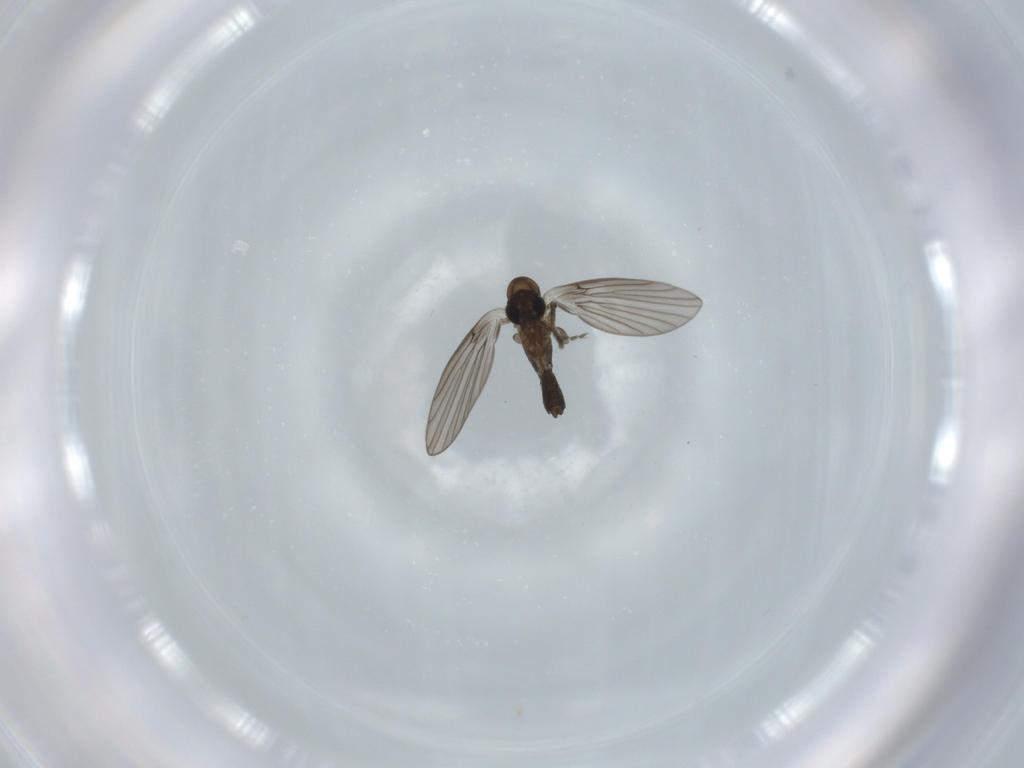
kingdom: Animalia
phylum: Arthropoda
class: Insecta
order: Diptera
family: Psychodidae
